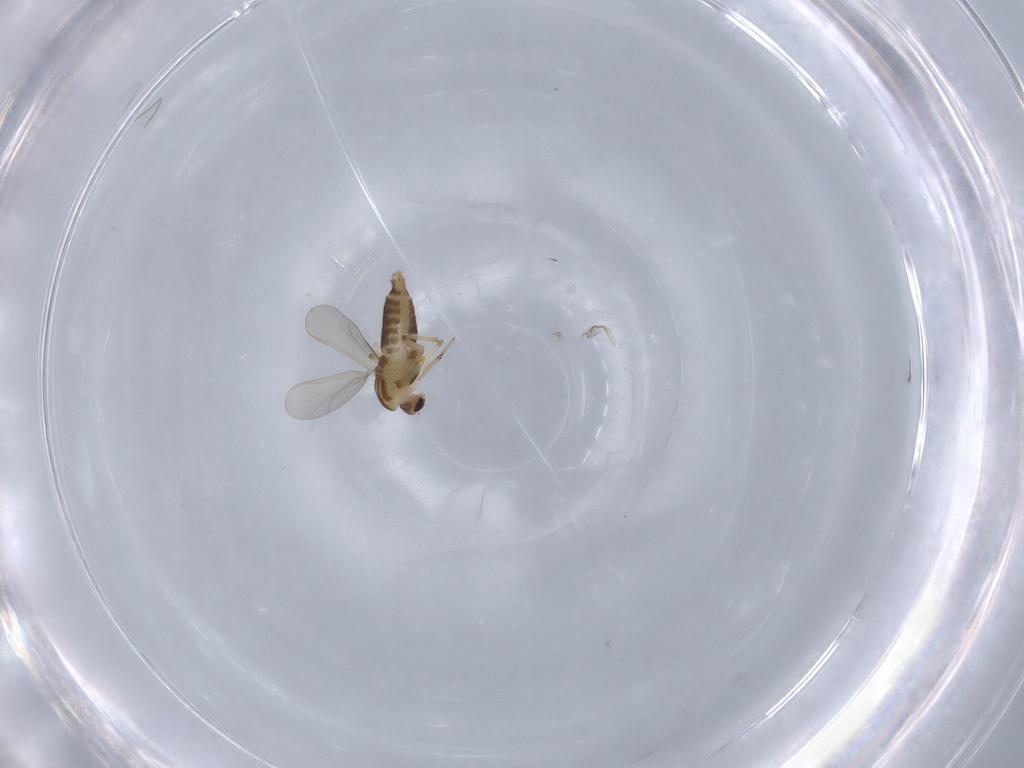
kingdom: Animalia
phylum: Arthropoda
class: Insecta
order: Diptera
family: Chironomidae
